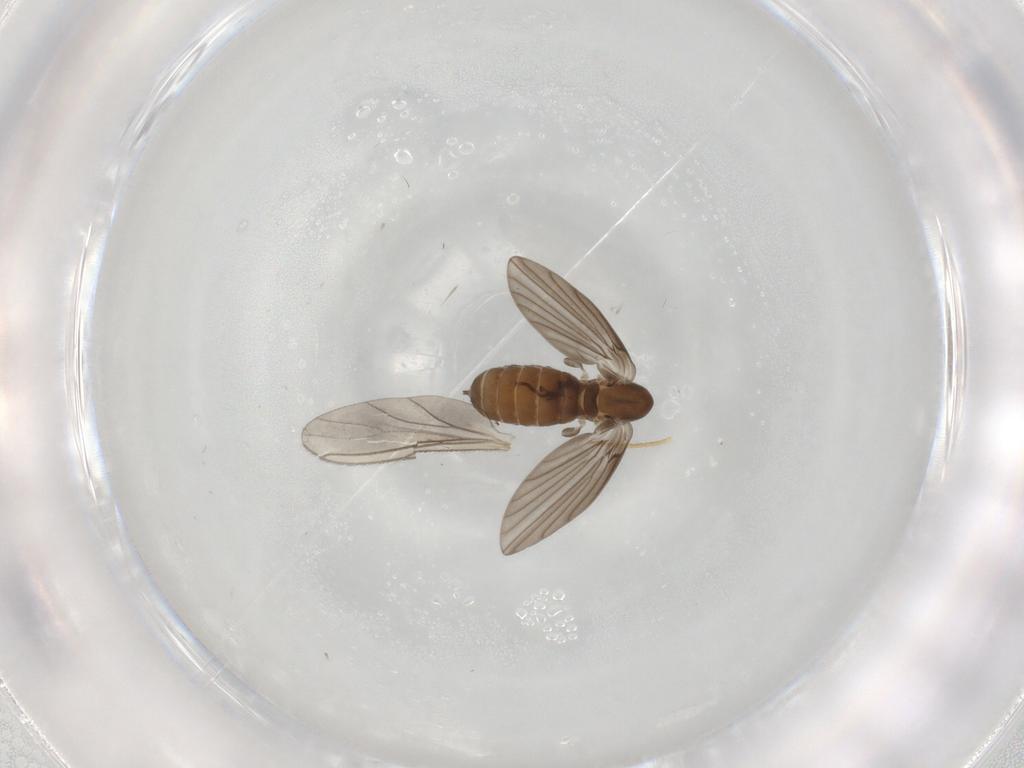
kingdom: Animalia
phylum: Arthropoda
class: Insecta
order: Diptera
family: Psychodidae
